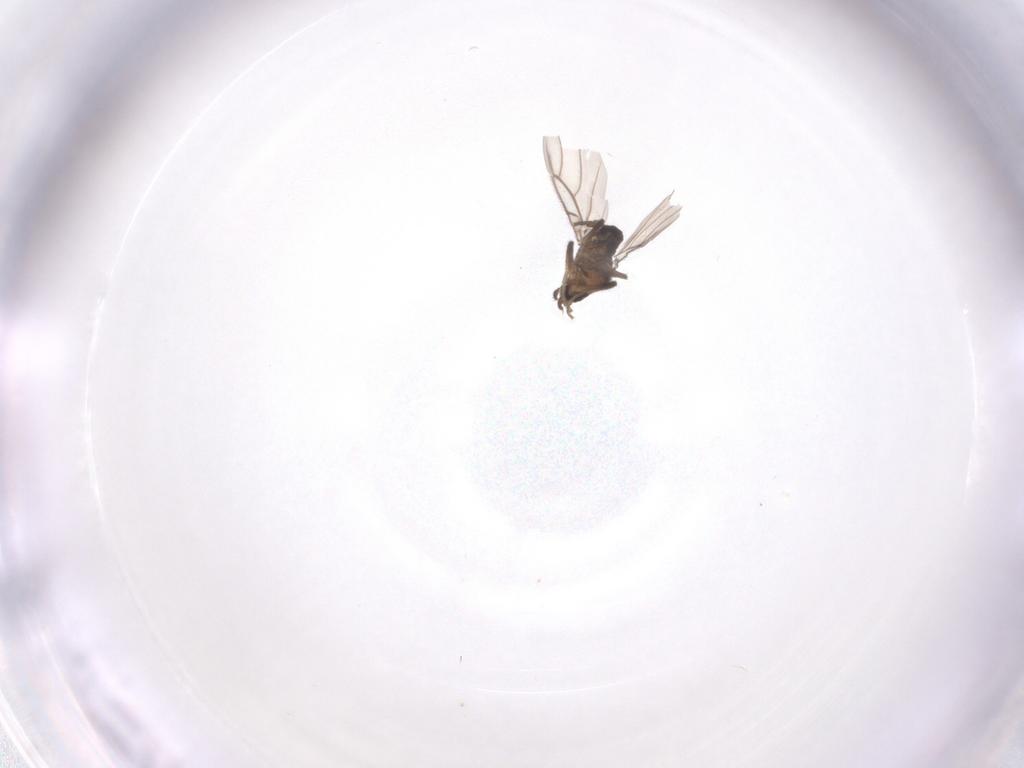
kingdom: Animalia
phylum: Arthropoda
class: Insecta
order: Diptera
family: Phoridae
